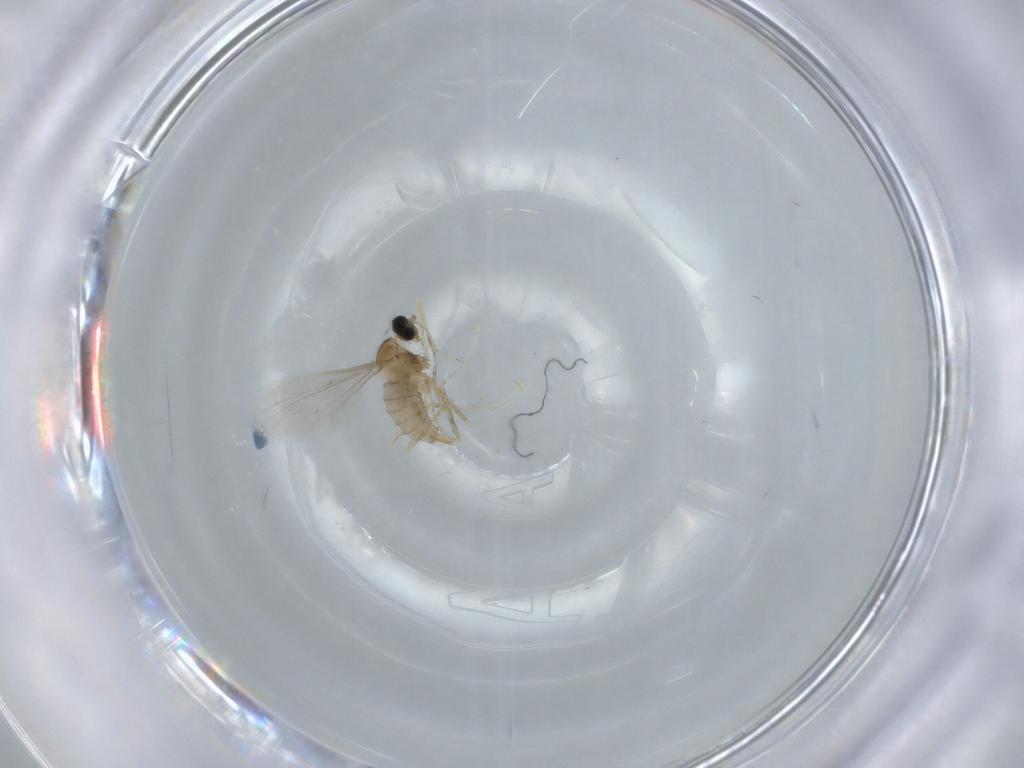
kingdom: Animalia
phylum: Arthropoda
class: Insecta
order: Diptera
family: Cecidomyiidae
